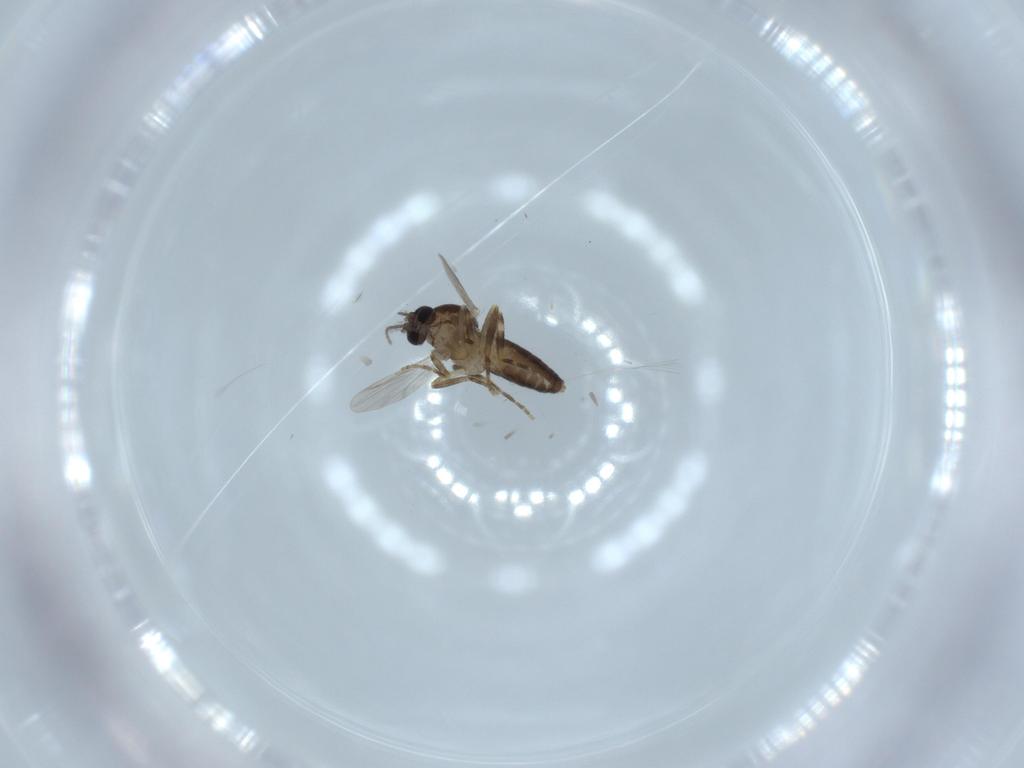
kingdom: Animalia
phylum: Arthropoda
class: Insecta
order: Diptera
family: Ceratopogonidae
